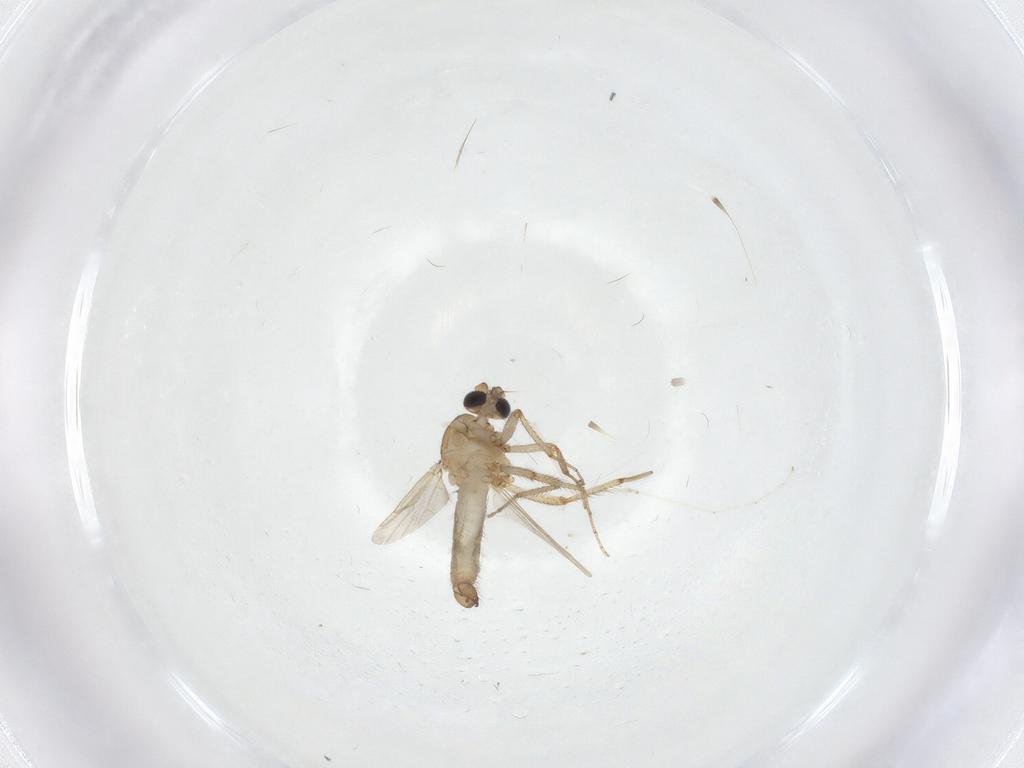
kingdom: Animalia
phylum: Arthropoda
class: Insecta
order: Diptera
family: Ceratopogonidae
